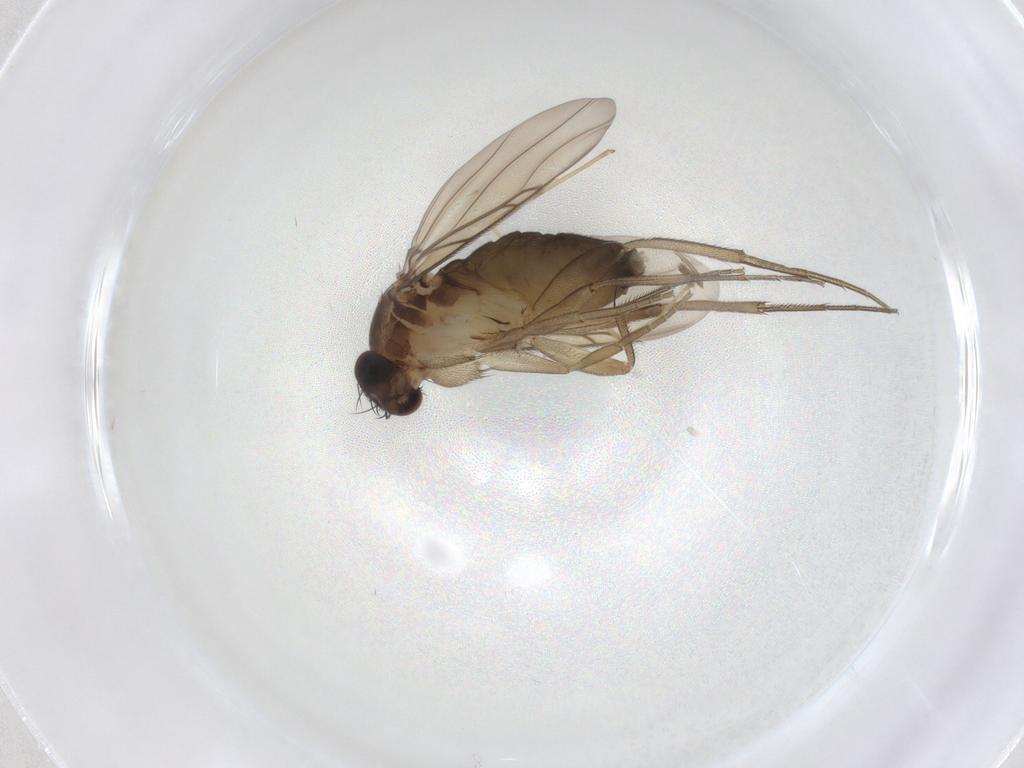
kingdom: Animalia
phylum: Arthropoda
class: Insecta
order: Diptera
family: Phoridae
